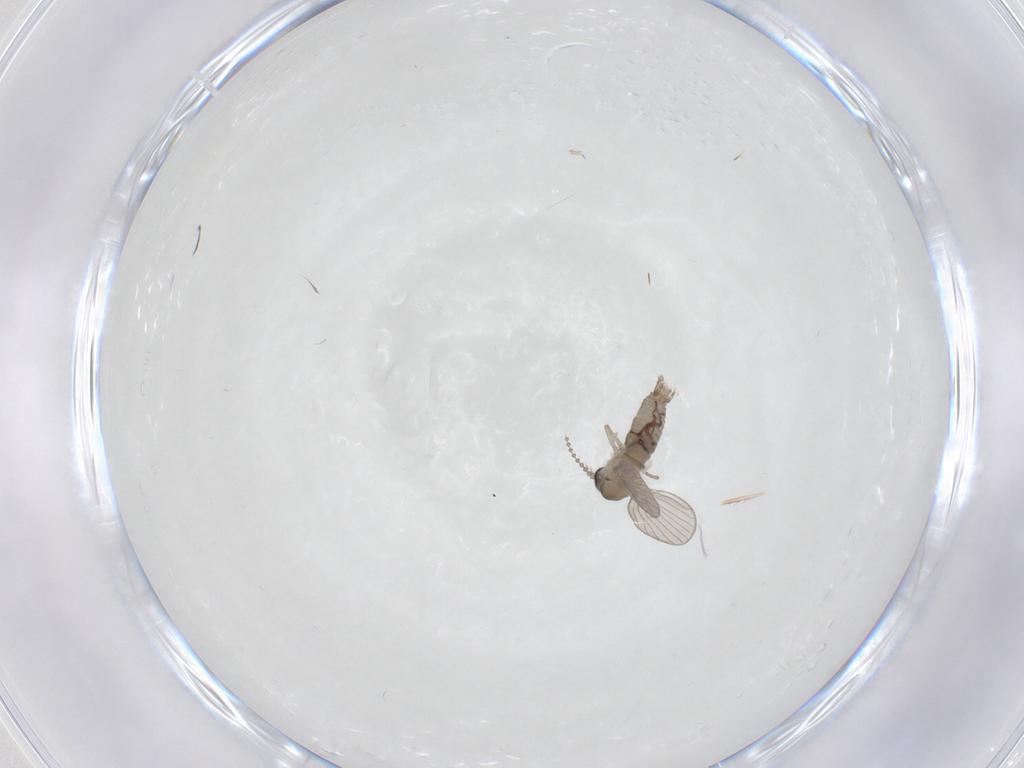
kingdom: Animalia
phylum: Arthropoda
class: Insecta
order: Diptera
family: Psychodidae
